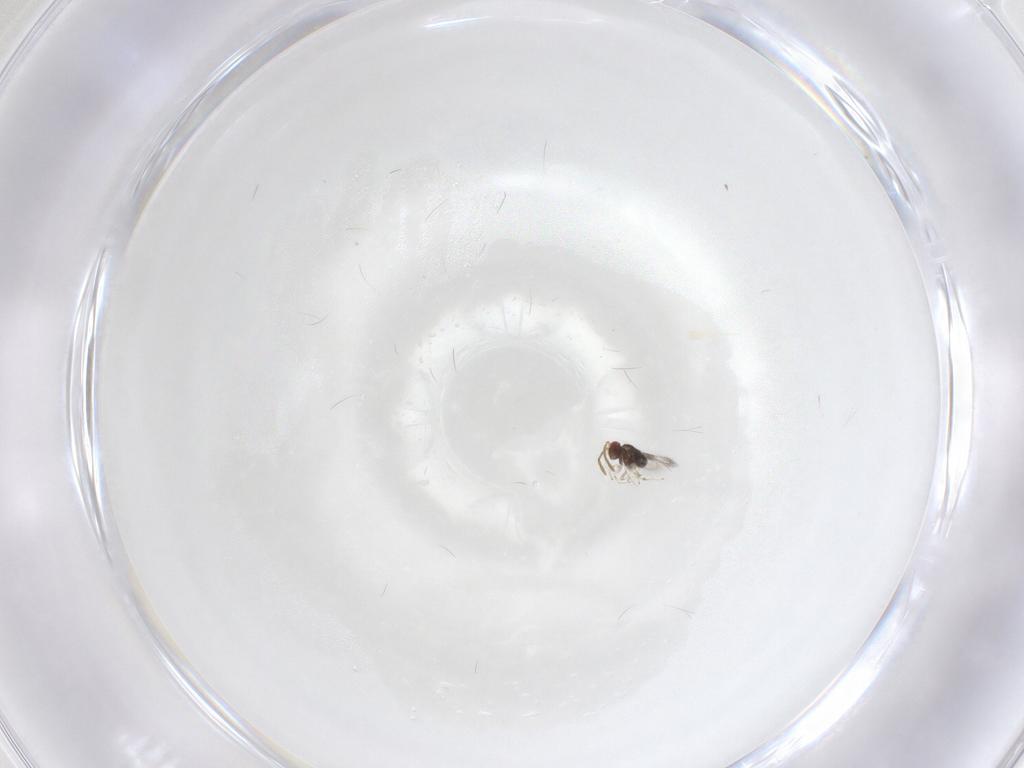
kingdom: Animalia
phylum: Arthropoda
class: Insecta
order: Hymenoptera
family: Azotidae
